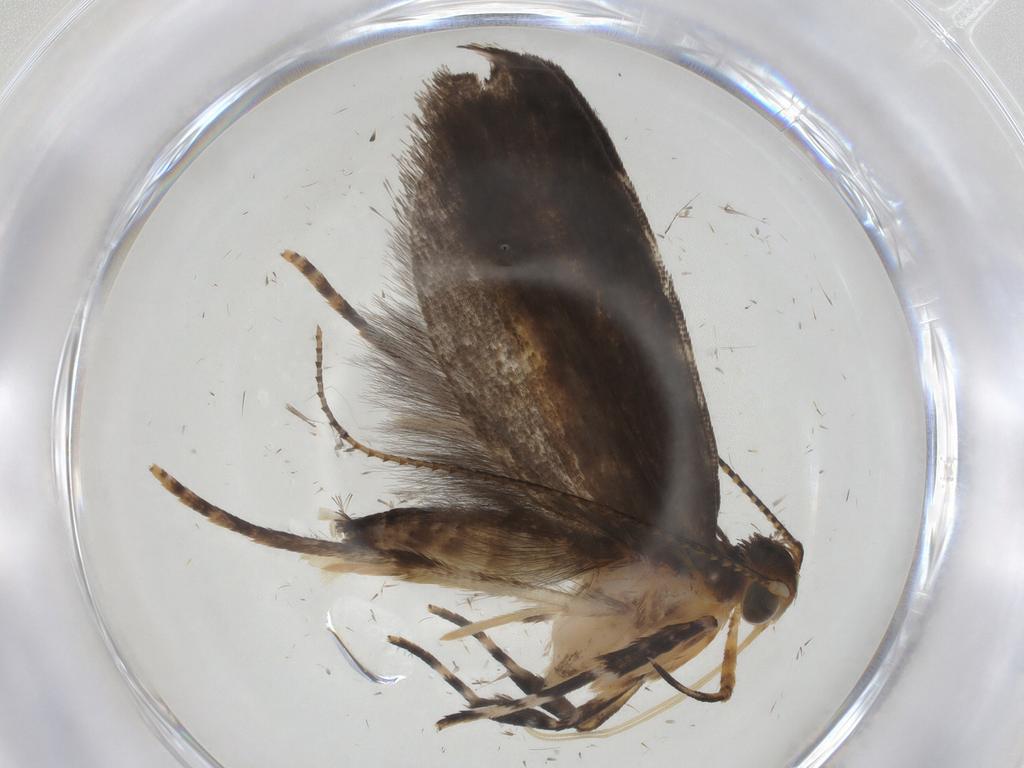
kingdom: Animalia
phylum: Arthropoda
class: Insecta
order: Lepidoptera
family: Gelechiidae
